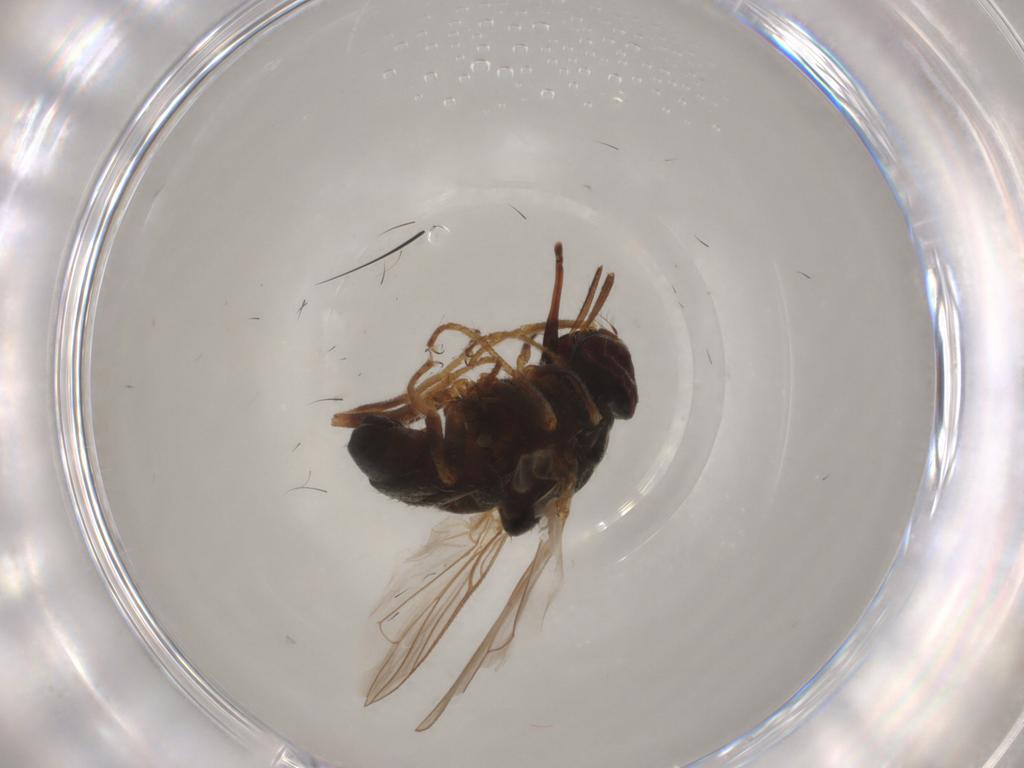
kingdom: Animalia
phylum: Arthropoda
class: Insecta
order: Diptera
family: Muscidae
